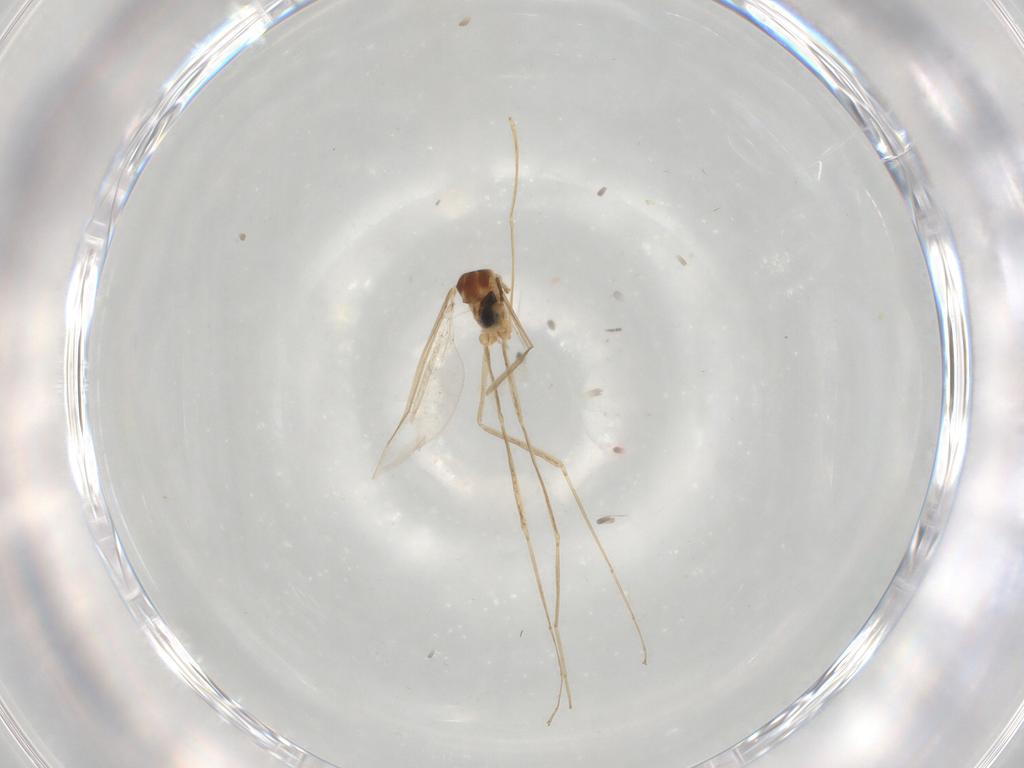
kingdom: Animalia
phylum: Arthropoda
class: Insecta
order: Diptera
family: Cecidomyiidae
